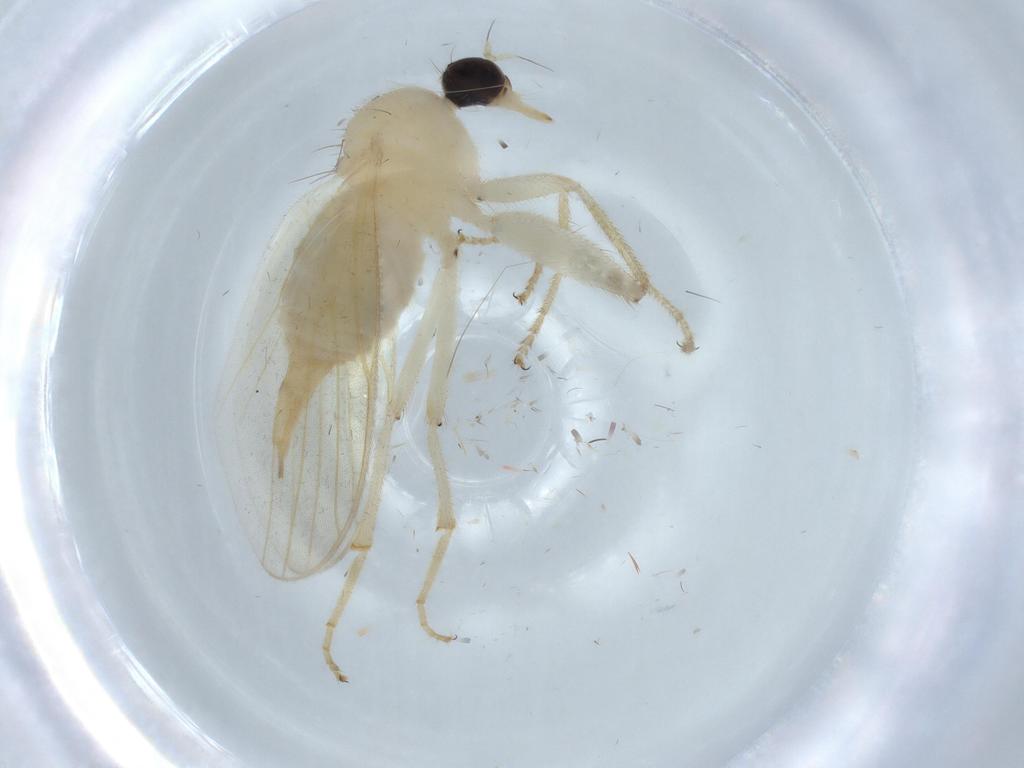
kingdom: Animalia
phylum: Arthropoda
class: Insecta
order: Diptera
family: Hybotidae
